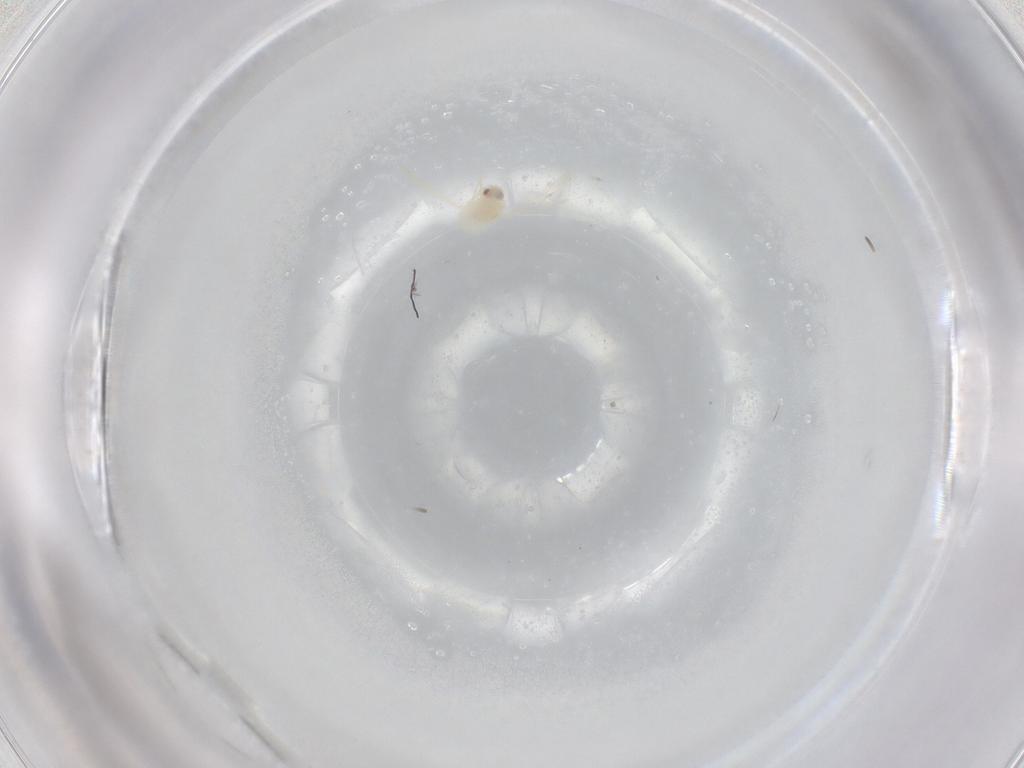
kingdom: Animalia
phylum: Arthropoda
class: Insecta
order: Hemiptera
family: Aleyrodidae
